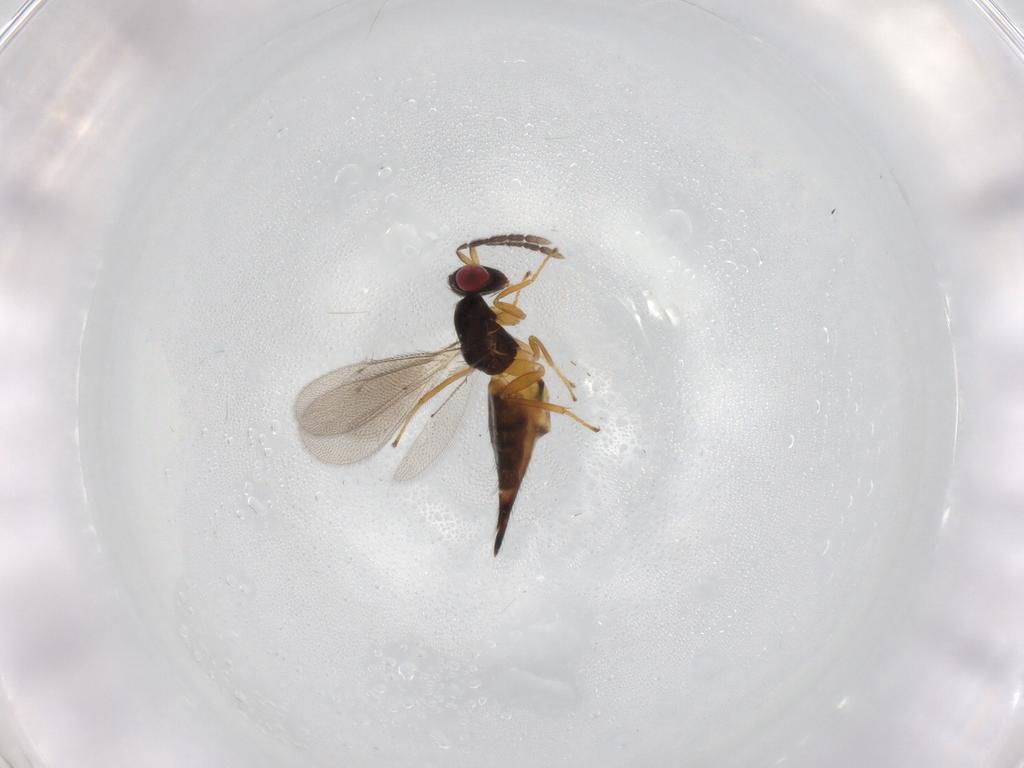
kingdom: Animalia
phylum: Arthropoda
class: Insecta
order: Hymenoptera
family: Eulophidae
